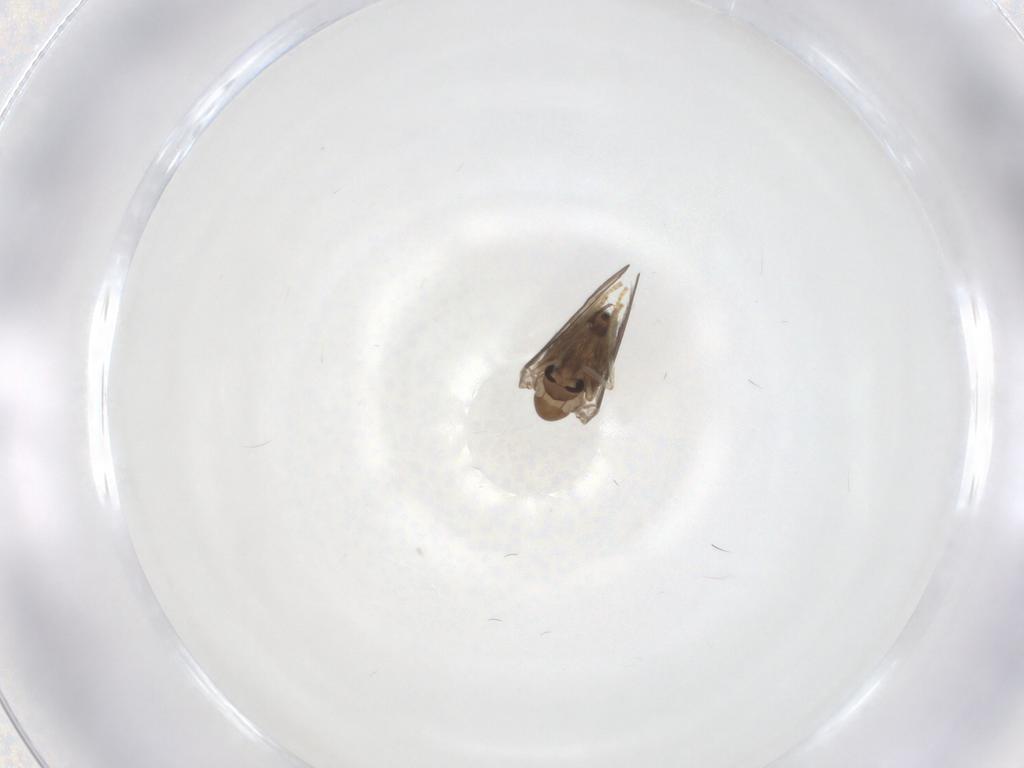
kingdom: Animalia
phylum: Arthropoda
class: Insecta
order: Diptera
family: Psychodidae
